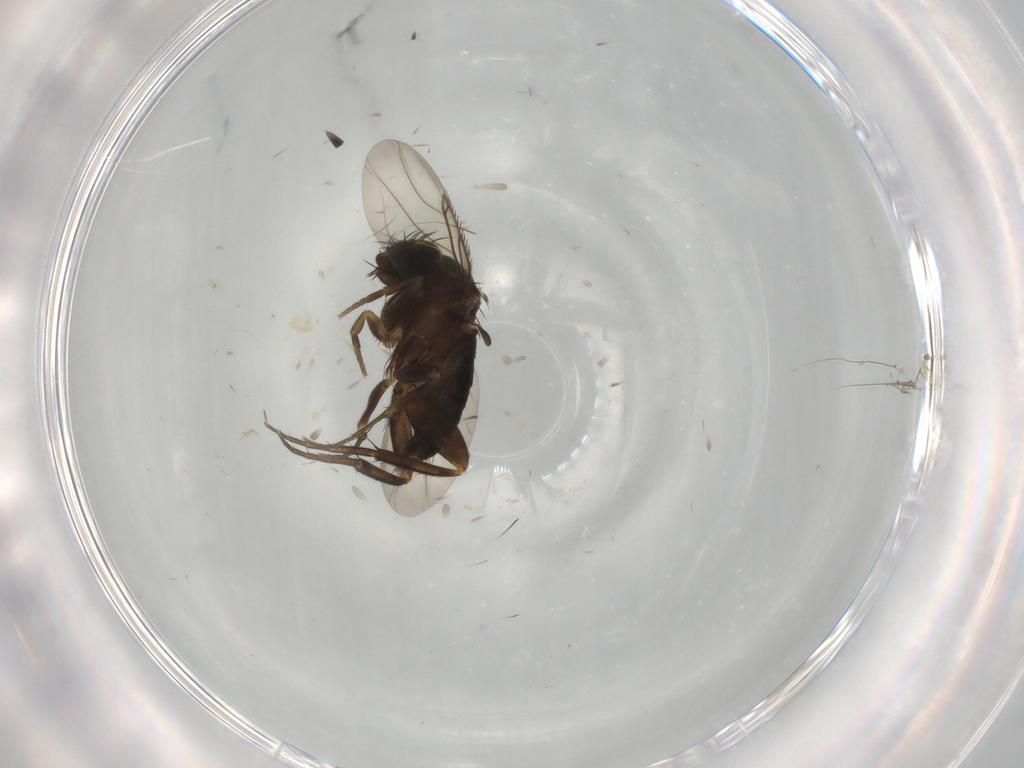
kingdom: Animalia
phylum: Arthropoda
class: Insecta
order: Diptera
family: Phoridae
